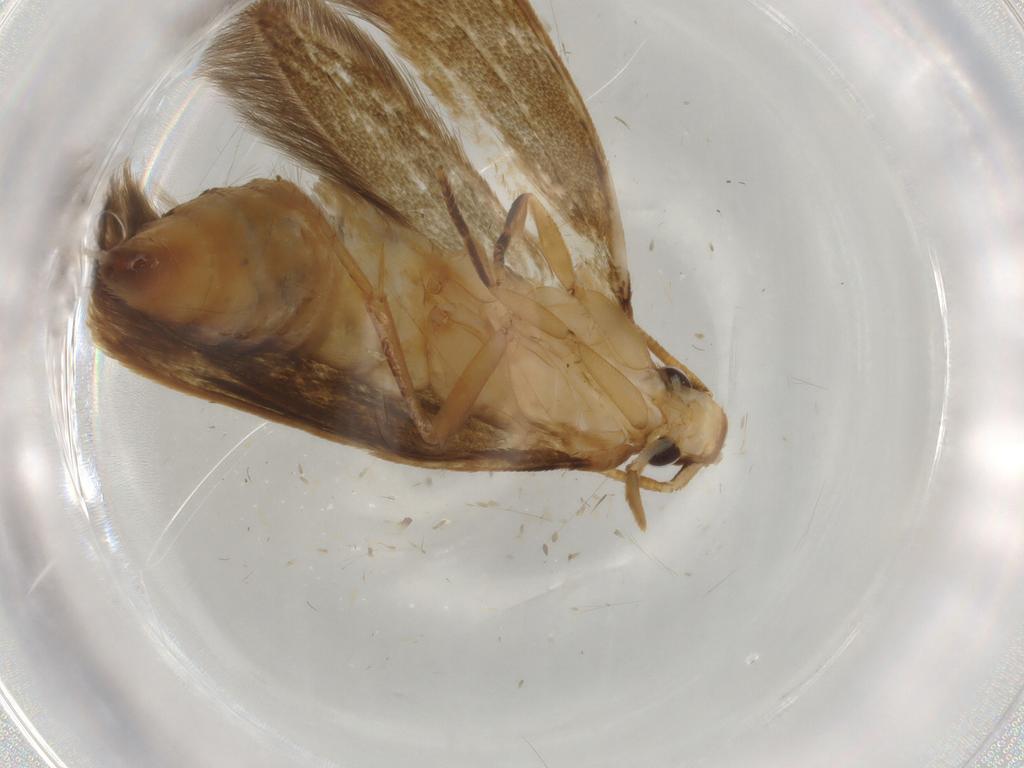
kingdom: Animalia
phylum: Arthropoda
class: Insecta
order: Lepidoptera
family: Tineidae
